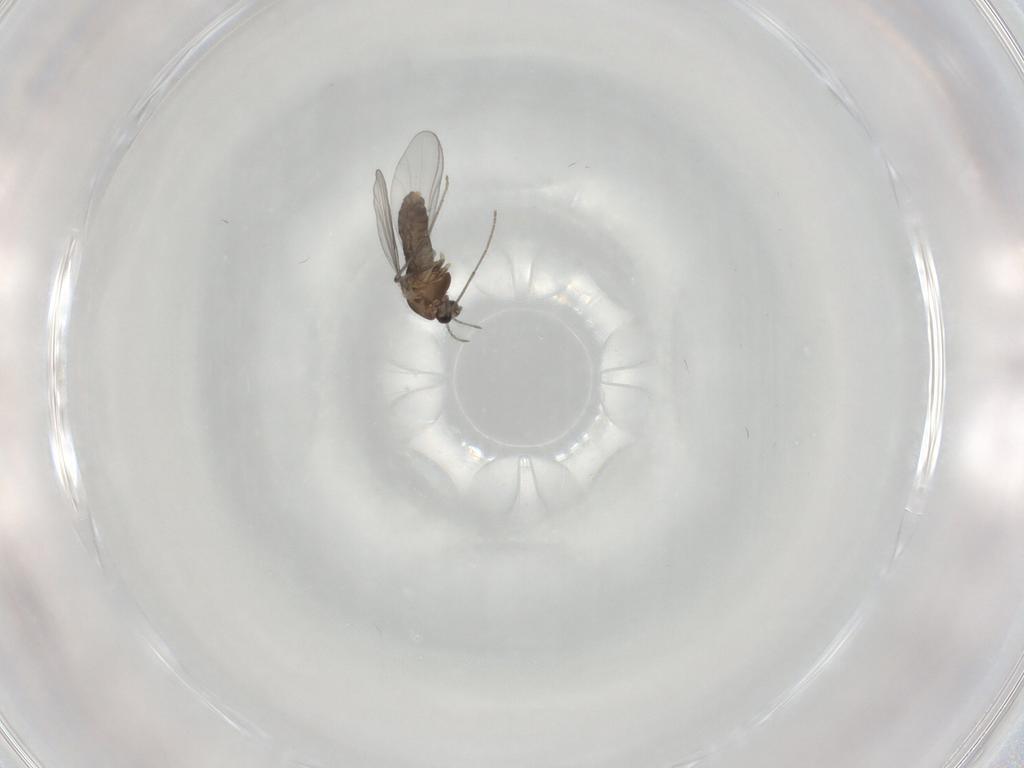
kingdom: Animalia
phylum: Arthropoda
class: Insecta
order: Diptera
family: Chironomidae
